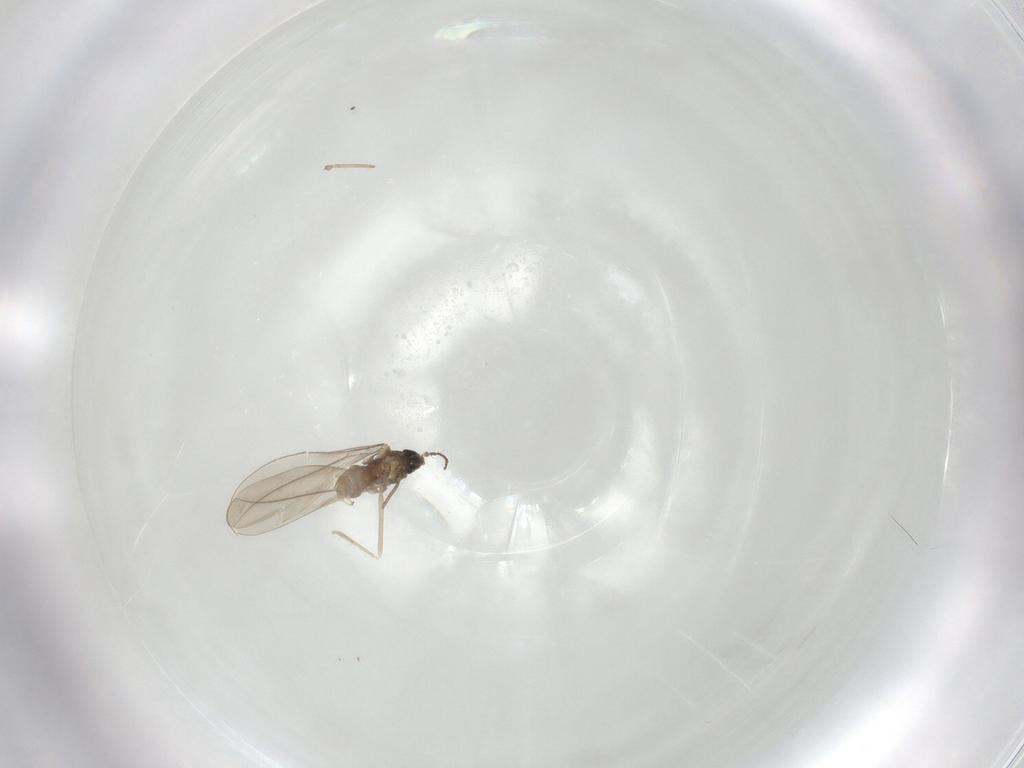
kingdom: Animalia
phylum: Arthropoda
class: Insecta
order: Diptera
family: Cecidomyiidae
